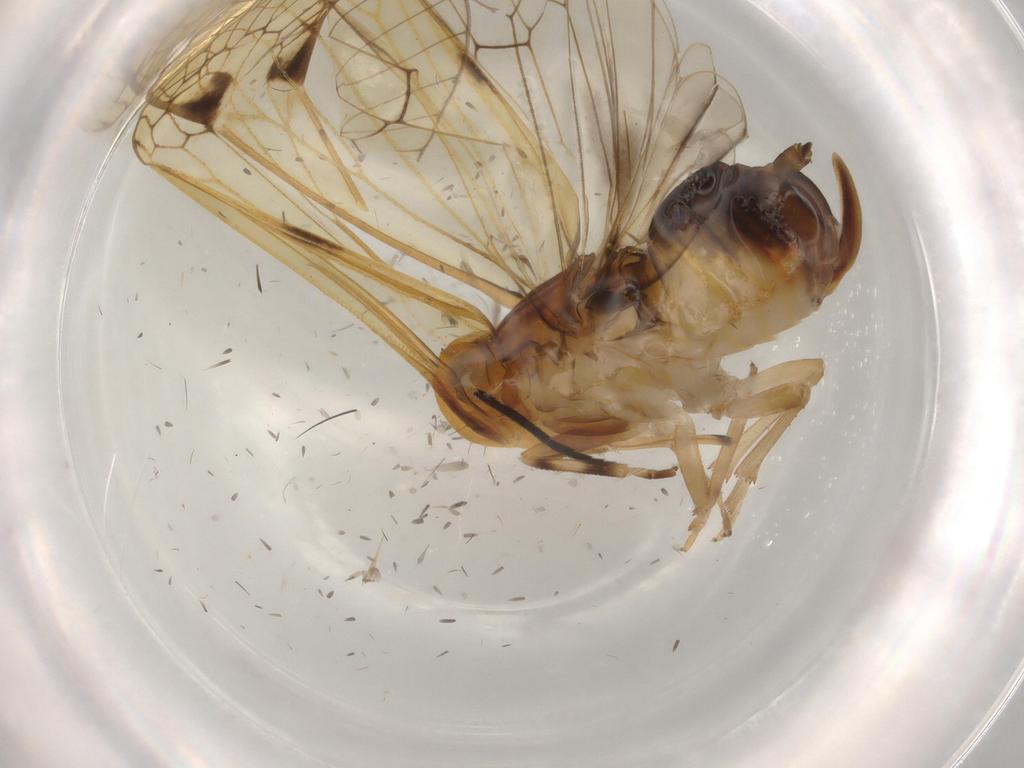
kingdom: Animalia
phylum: Arthropoda
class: Insecta
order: Hemiptera
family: Cixiidae
